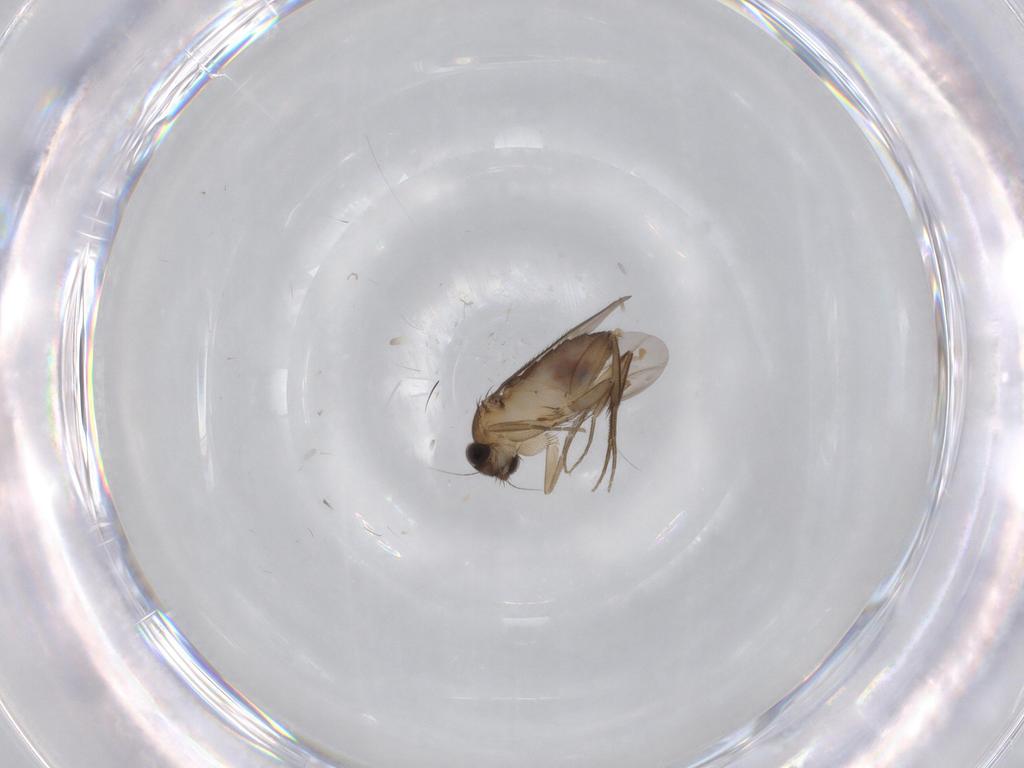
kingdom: Animalia
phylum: Arthropoda
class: Insecta
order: Diptera
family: Phoridae
